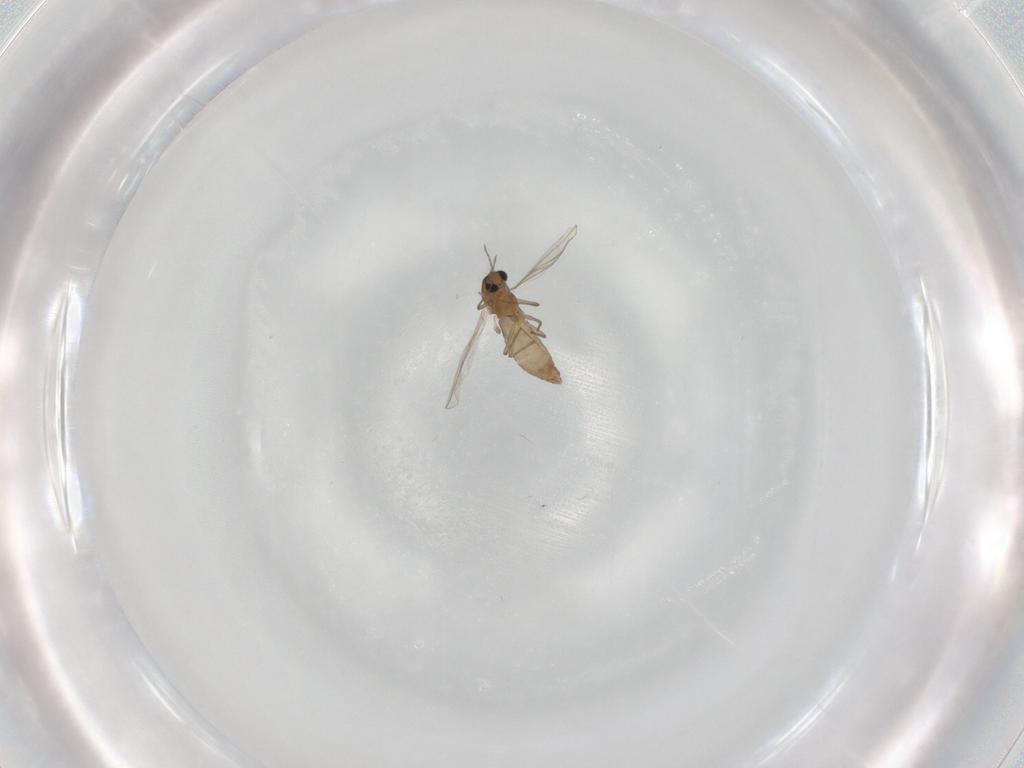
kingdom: Animalia
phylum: Arthropoda
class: Insecta
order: Diptera
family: Chironomidae
